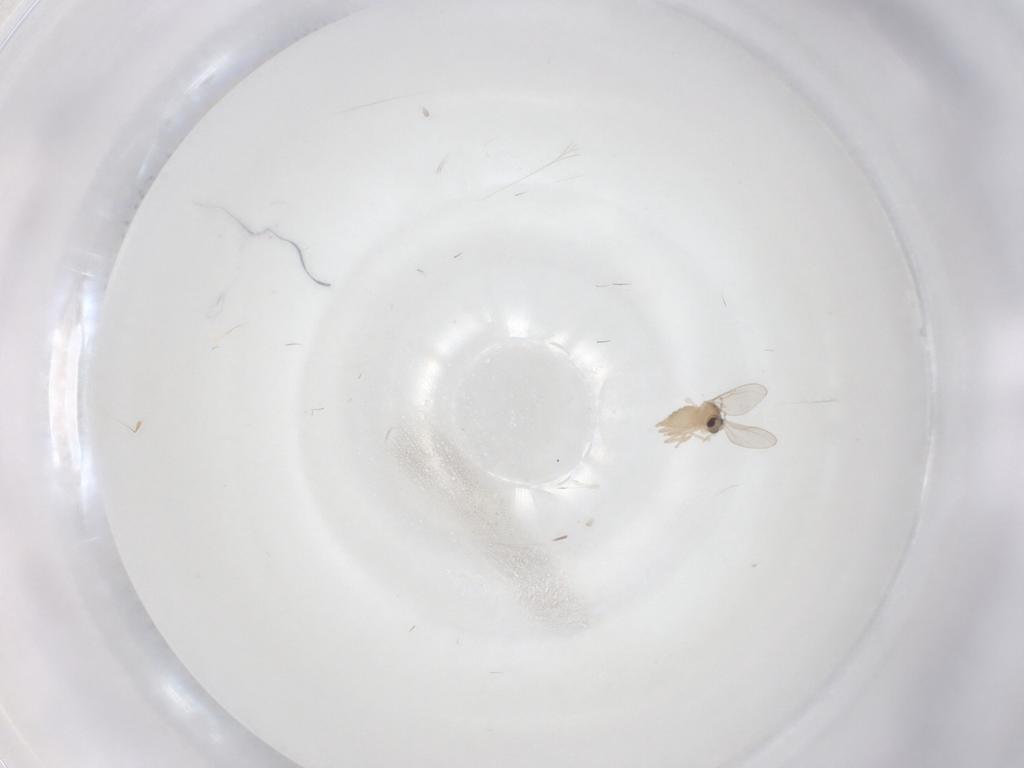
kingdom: Animalia
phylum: Arthropoda
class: Insecta
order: Diptera
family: Cecidomyiidae
